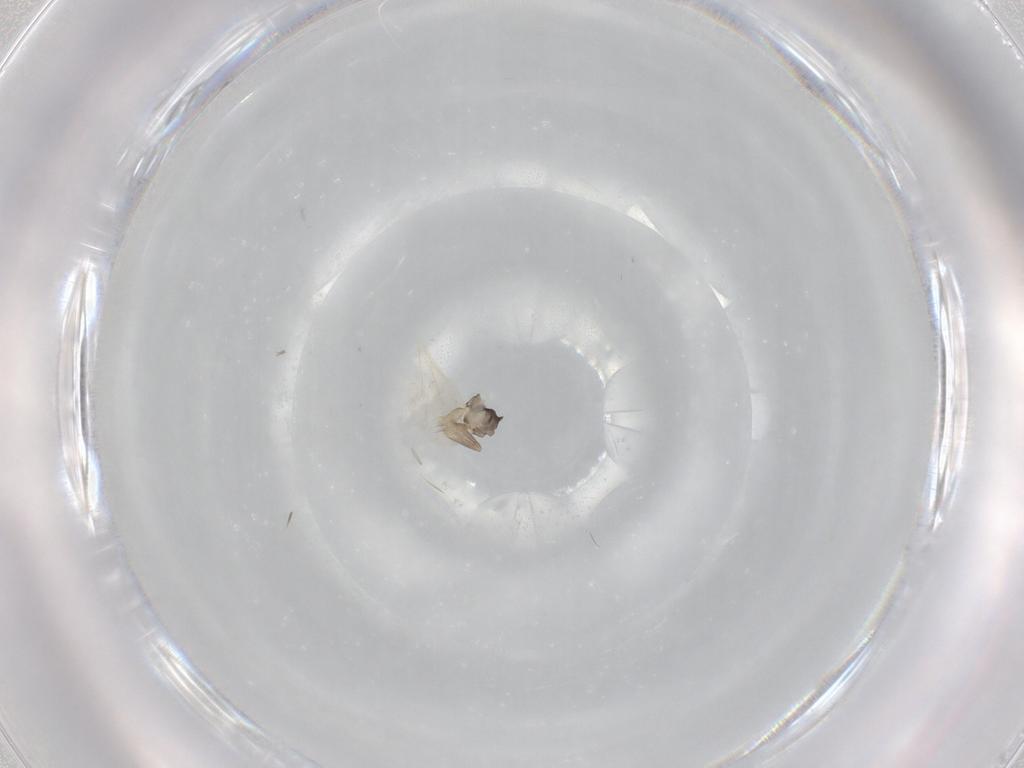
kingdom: Animalia
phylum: Arthropoda
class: Insecta
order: Diptera
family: Phoridae
